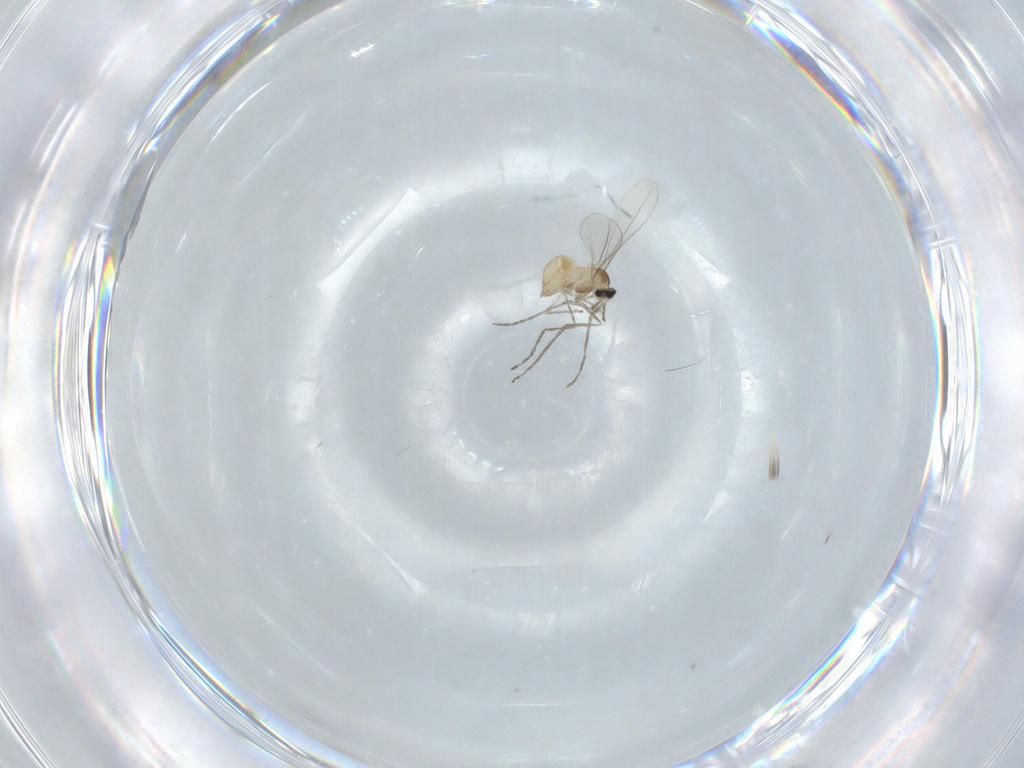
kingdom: Animalia
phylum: Arthropoda
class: Insecta
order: Diptera
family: Cecidomyiidae
